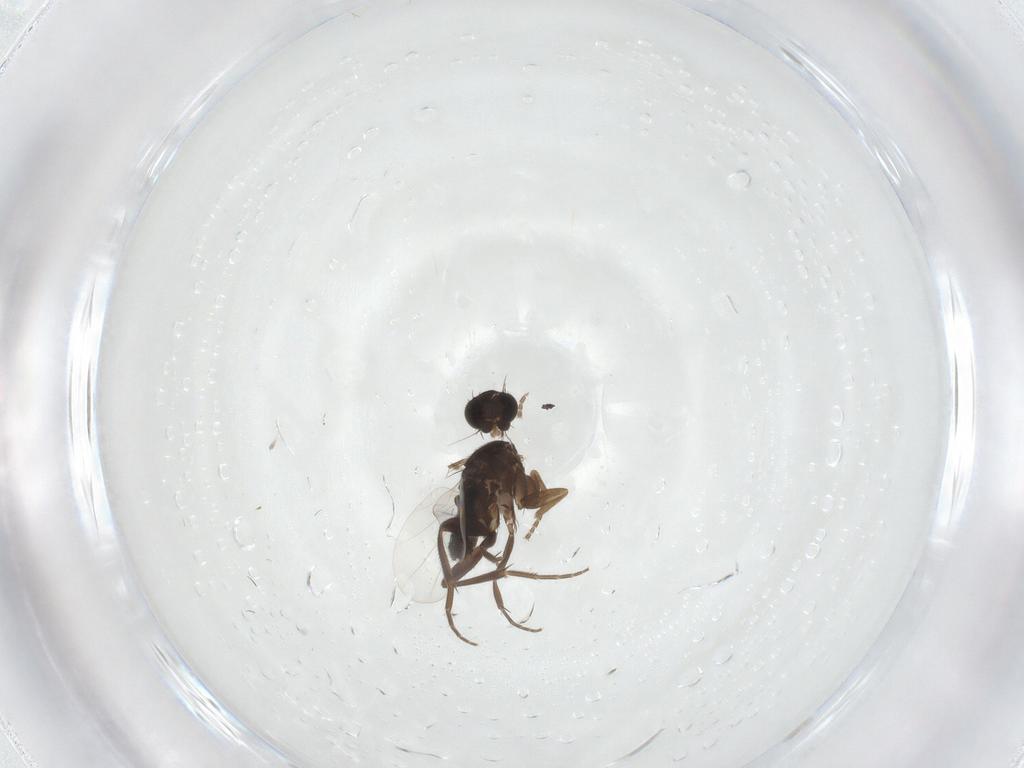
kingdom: Animalia
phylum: Arthropoda
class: Insecta
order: Diptera
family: Phoridae
